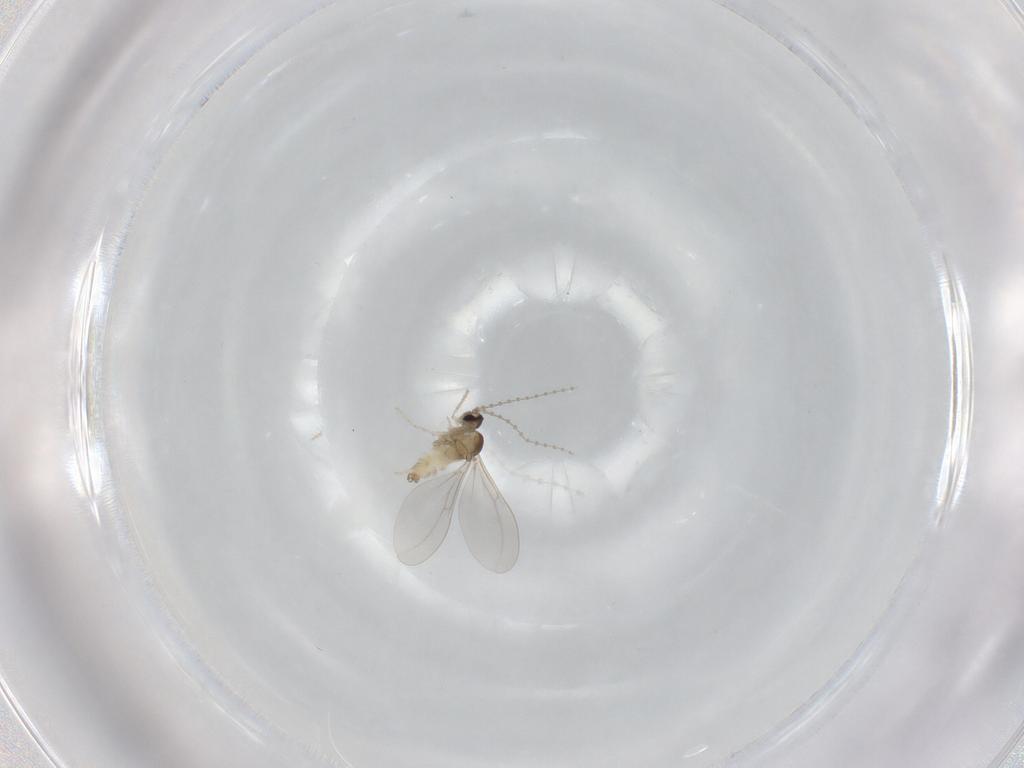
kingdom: Animalia
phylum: Arthropoda
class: Insecta
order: Diptera
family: Cecidomyiidae
